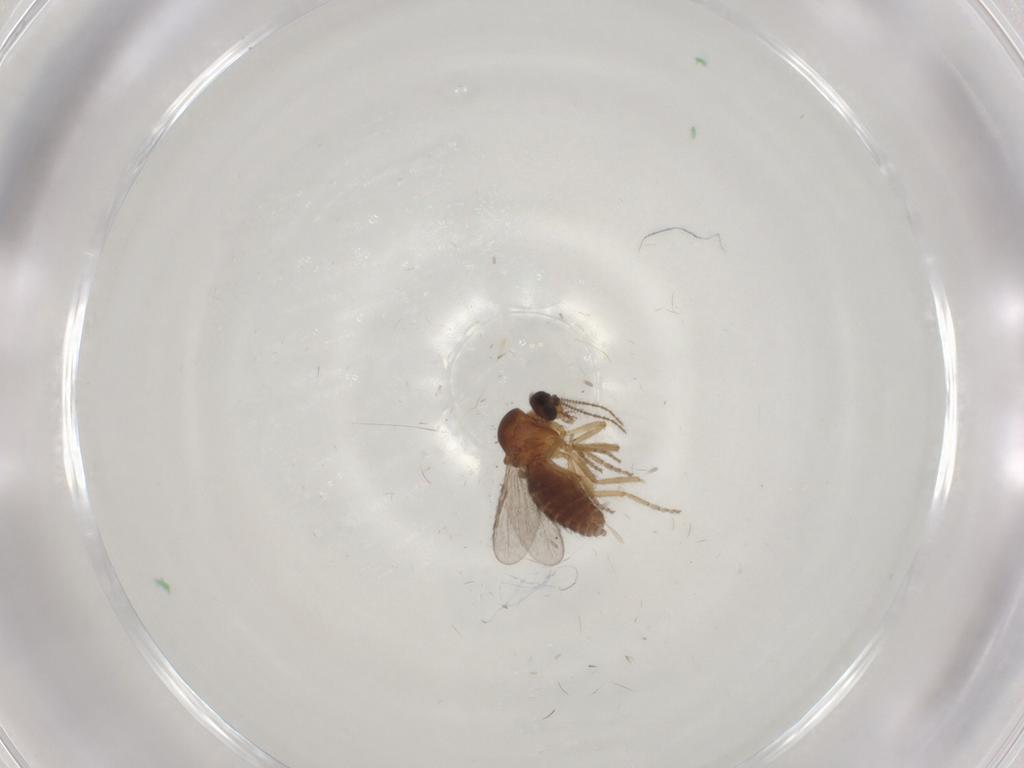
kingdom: Animalia
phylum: Arthropoda
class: Insecta
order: Diptera
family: Ceratopogonidae
